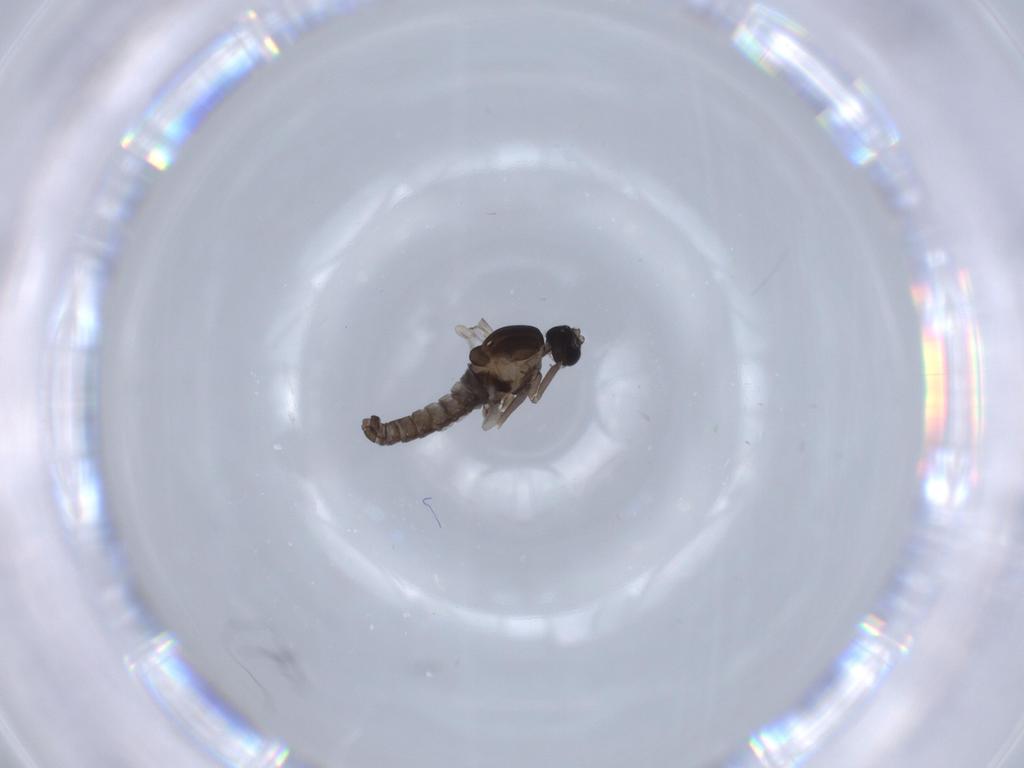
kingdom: Animalia
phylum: Arthropoda
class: Insecta
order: Diptera
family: Cecidomyiidae
